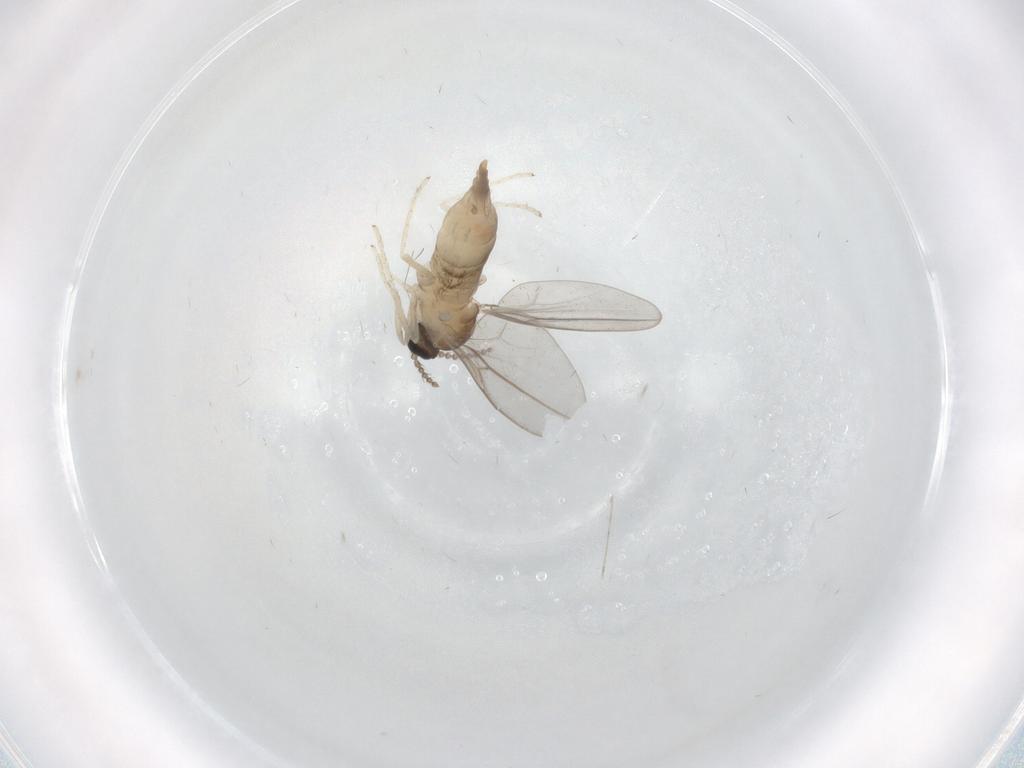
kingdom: Animalia
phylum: Arthropoda
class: Insecta
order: Diptera
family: Cecidomyiidae
